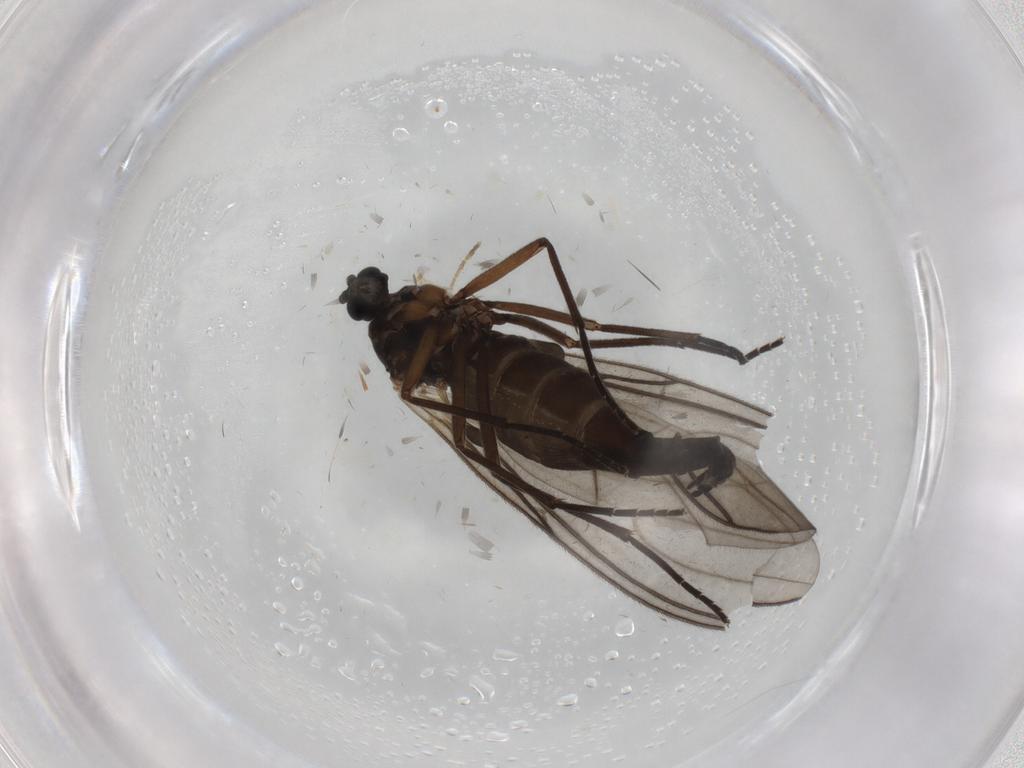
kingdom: Animalia
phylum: Arthropoda
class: Insecta
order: Diptera
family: Sciaridae
